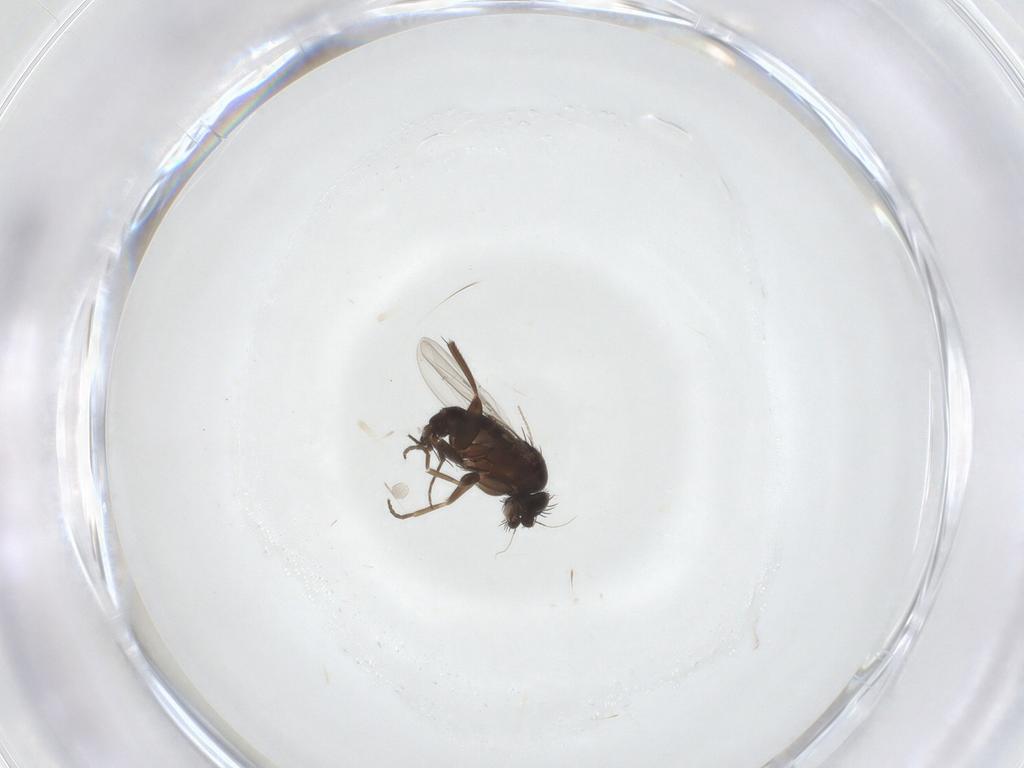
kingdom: Animalia
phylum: Arthropoda
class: Insecta
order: Diptera
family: Phoridae
